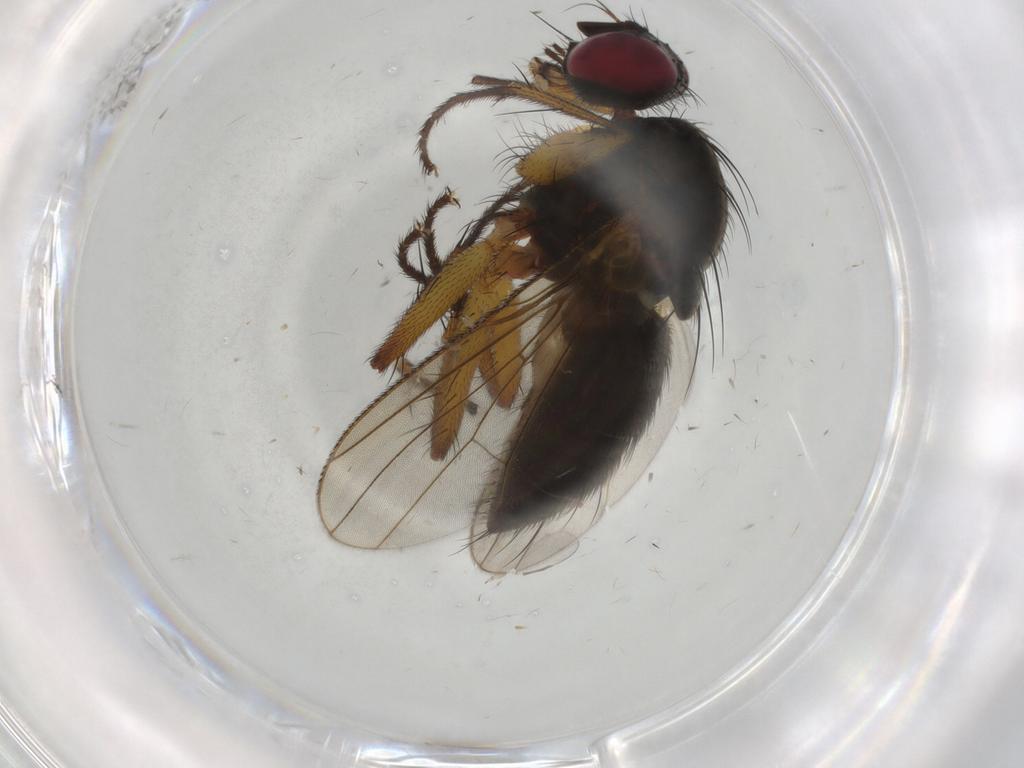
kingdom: Animalia
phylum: Arthropoda
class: Insecta
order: Diptera
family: Muscidae
